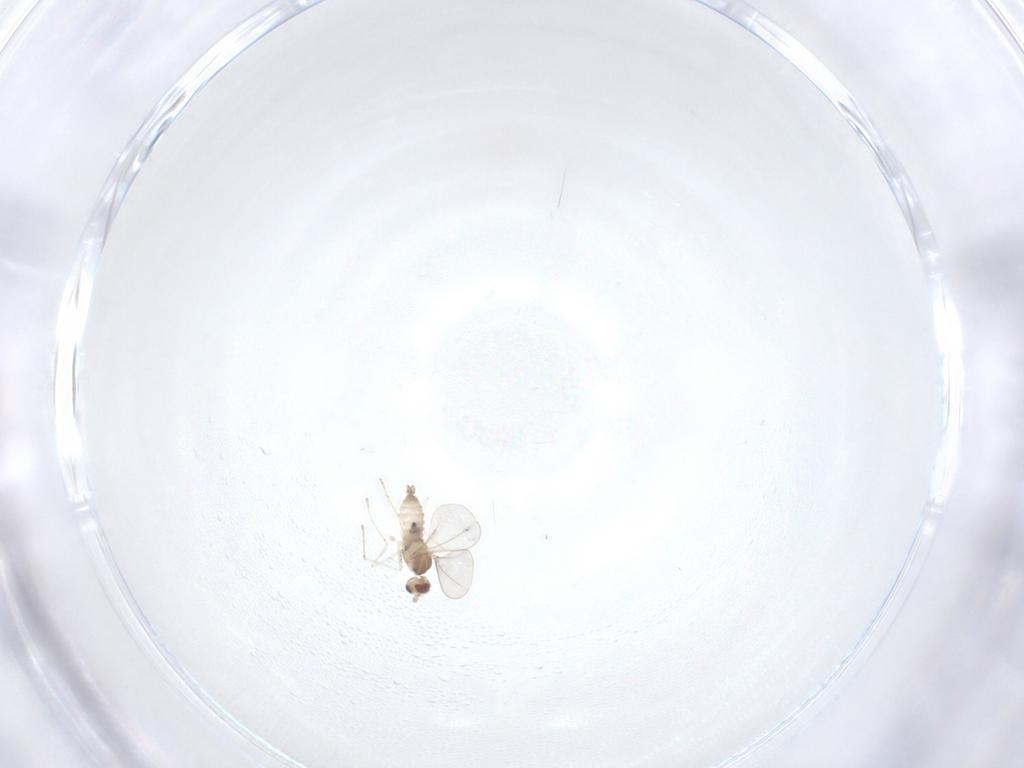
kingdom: Animalia
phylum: Arthropoda
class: Insecta
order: Diptera
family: Cecidomyiidae
